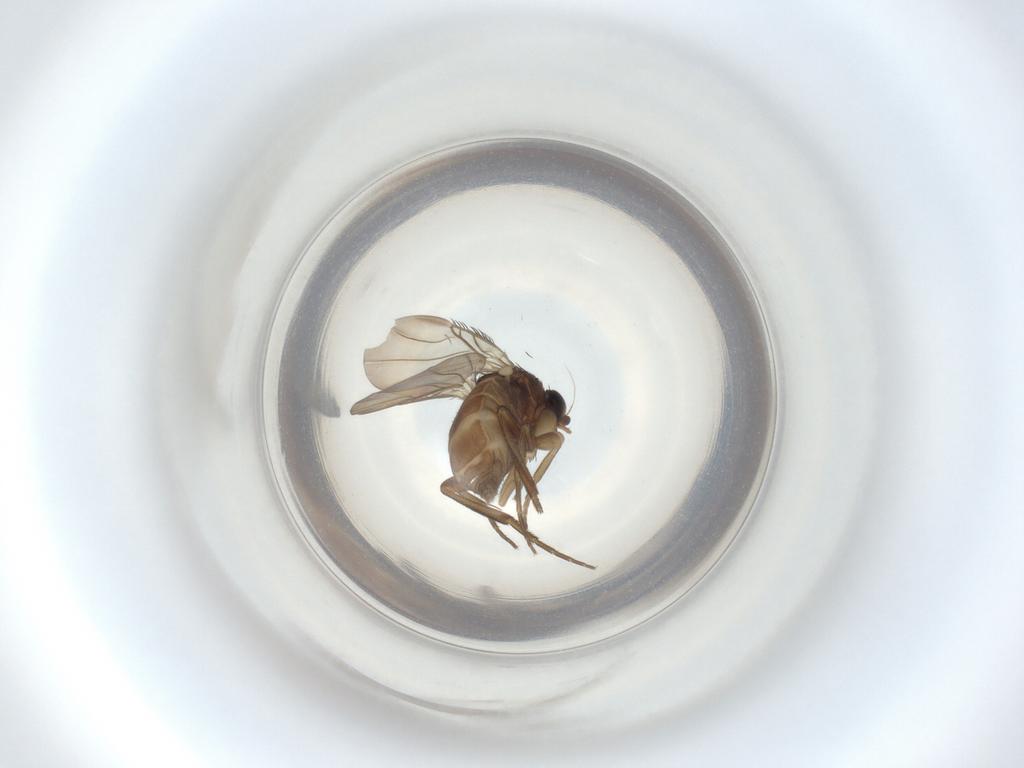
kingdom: Animalia
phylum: Arthropoda
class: Insecta
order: Diptera
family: Phoridae
